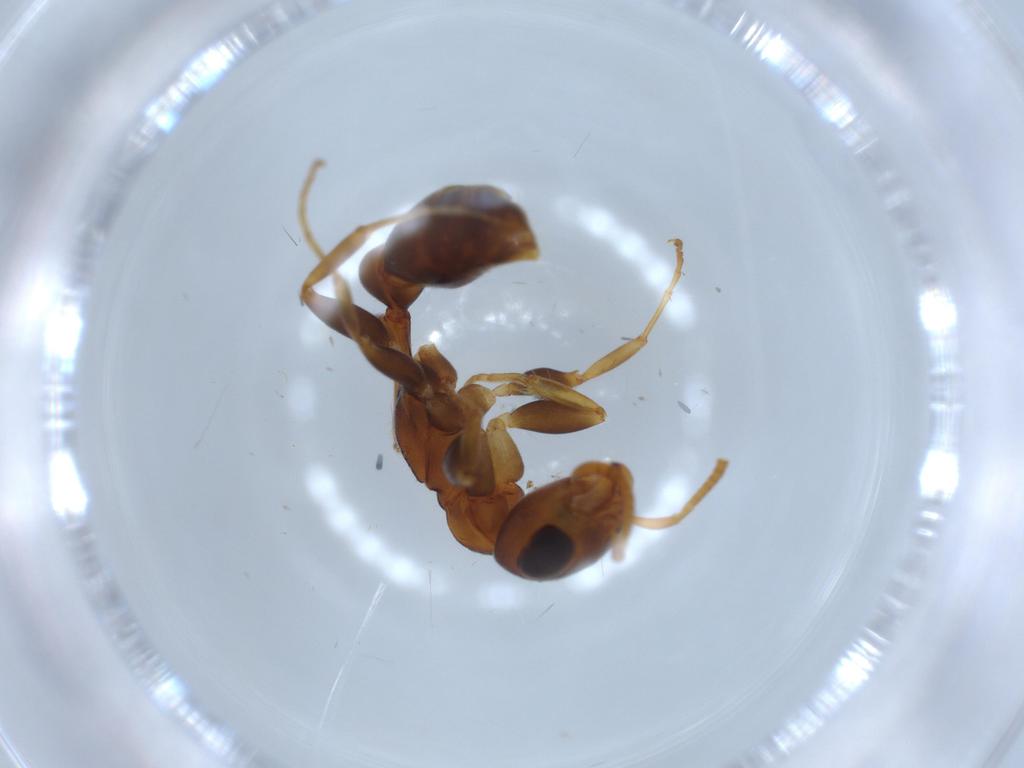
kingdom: Animalia
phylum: Arthropoda
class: Insecta
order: Hymenoptera
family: Formicidae
